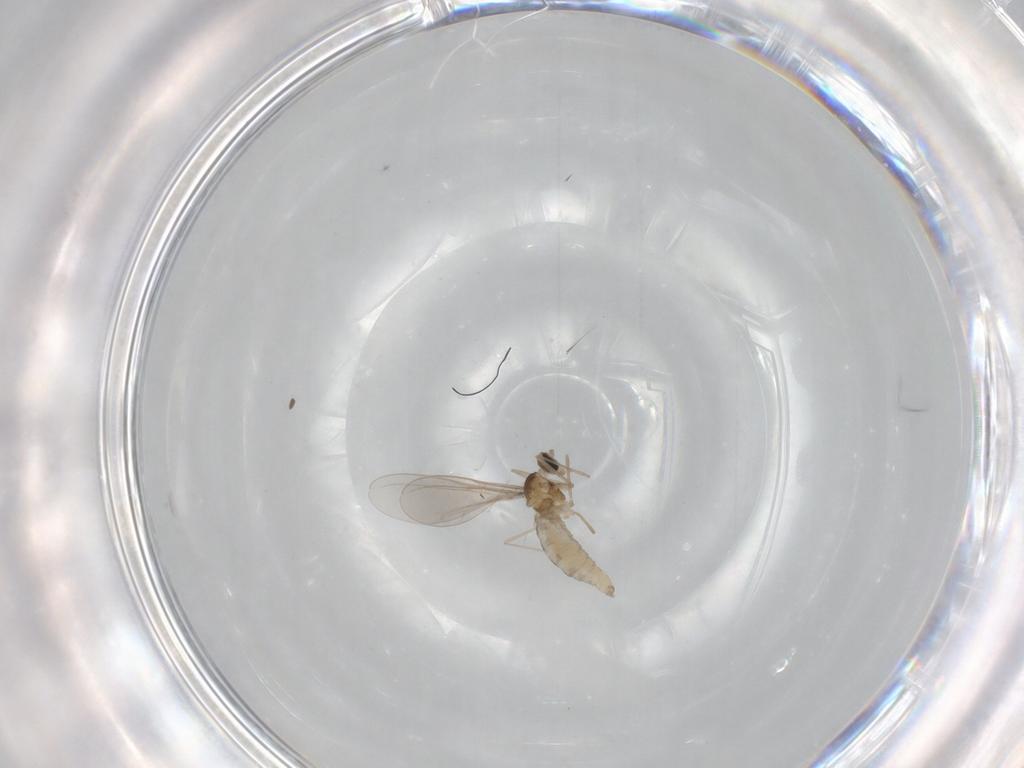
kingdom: Animalia
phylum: Arthropoda
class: Insecta
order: Diptera
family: Cecidomyiidae
